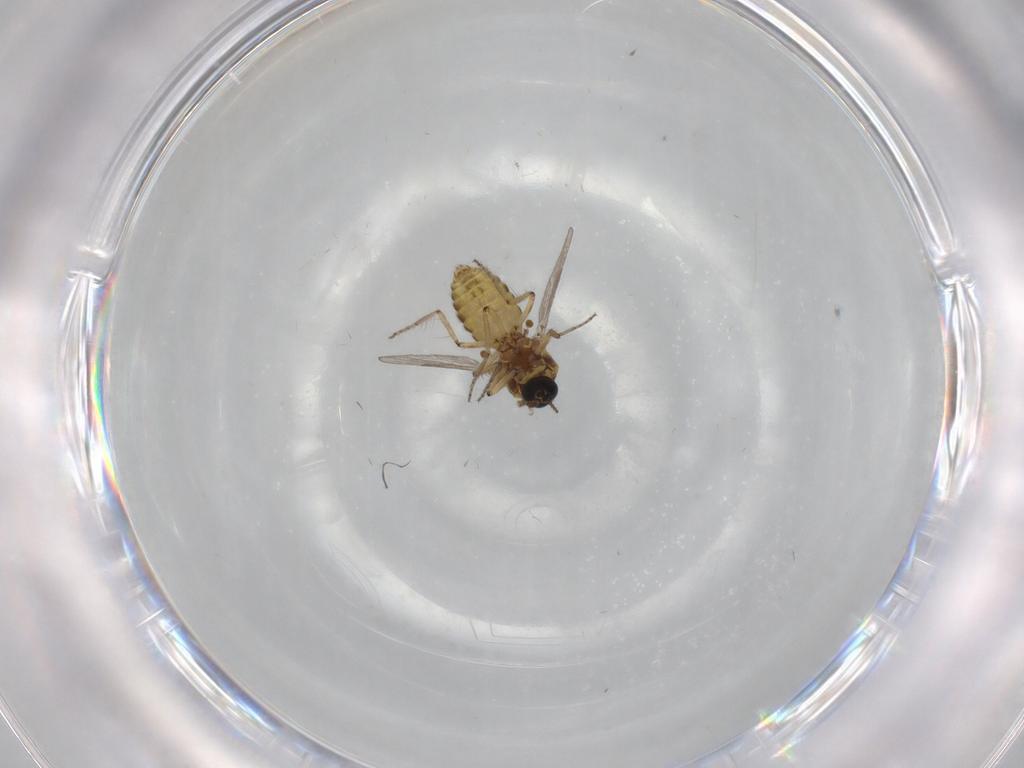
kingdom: Animalia
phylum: Arthropoda
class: Insecta
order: Diptera
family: Ceratopogonidae
